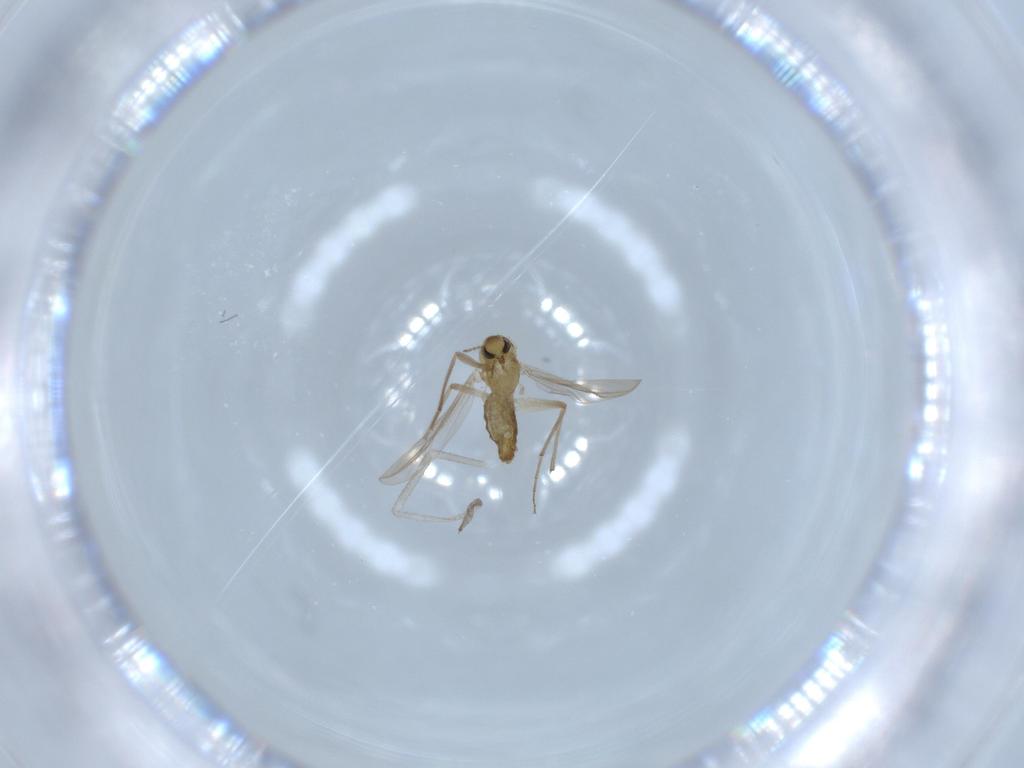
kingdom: Animalia
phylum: Arthropoda
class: Insecta
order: Diptera
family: Chironomidae
